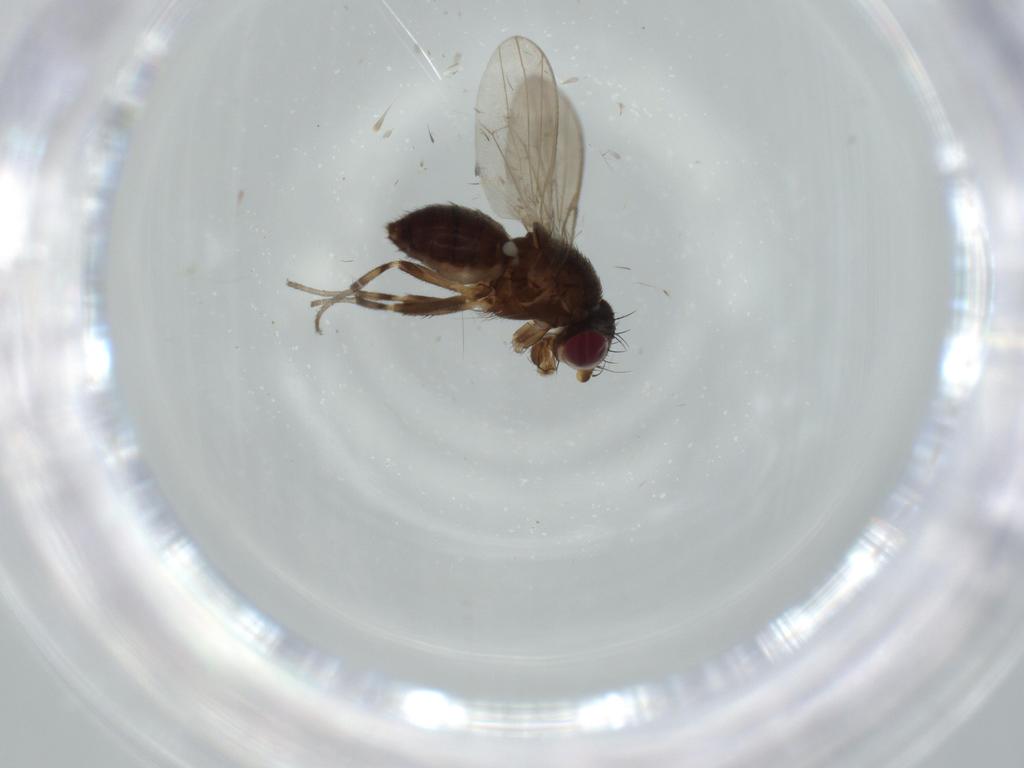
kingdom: Animalia
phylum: Arthropoda
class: Insecta
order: Diptera
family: Heleomyzidae
